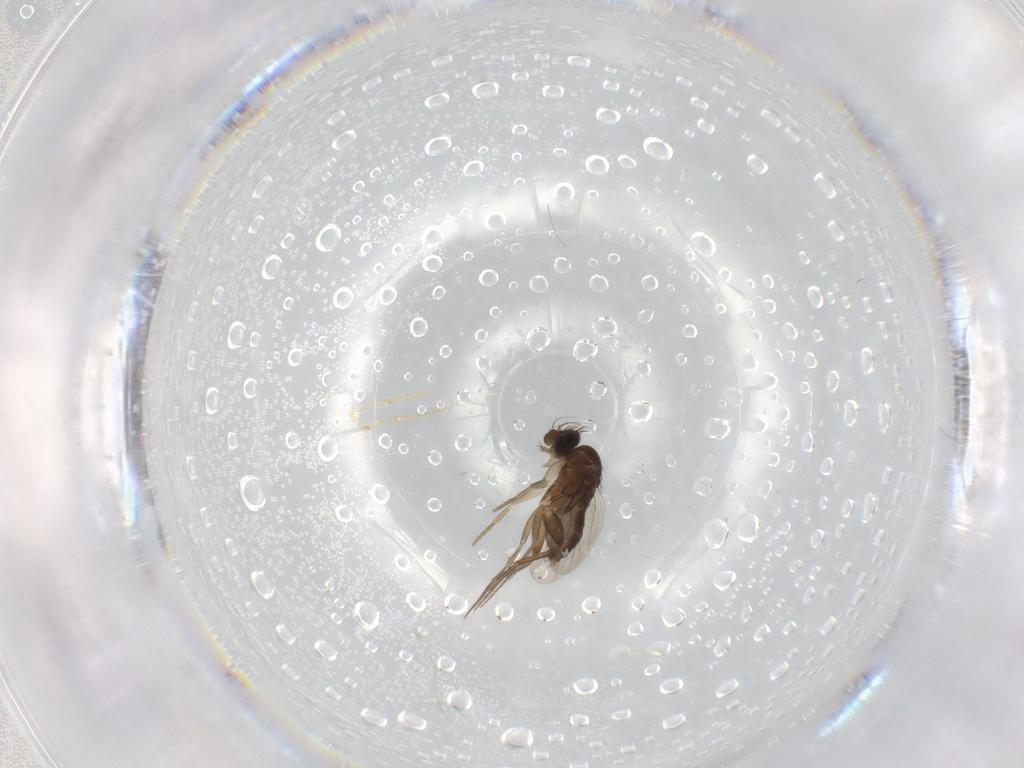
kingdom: Animalia
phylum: Arthropoda
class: Insecta
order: Diptera
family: Phoridae
